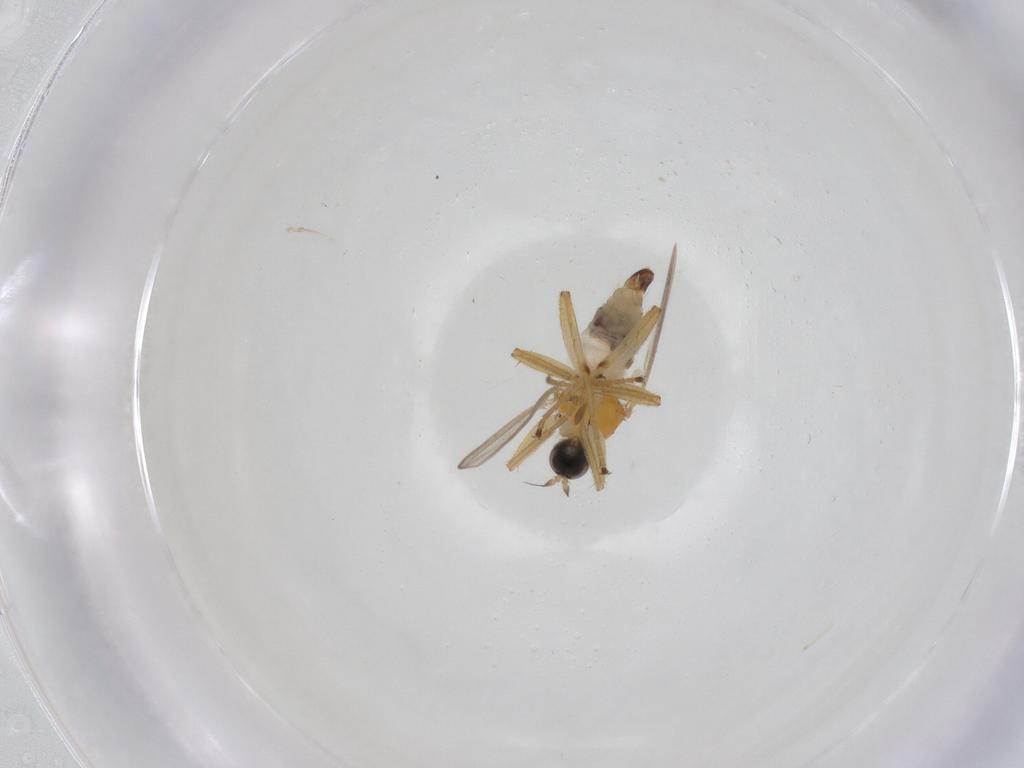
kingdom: Animalia
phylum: Arthropoda
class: Insecta
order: Diptera
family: Hybotidae
